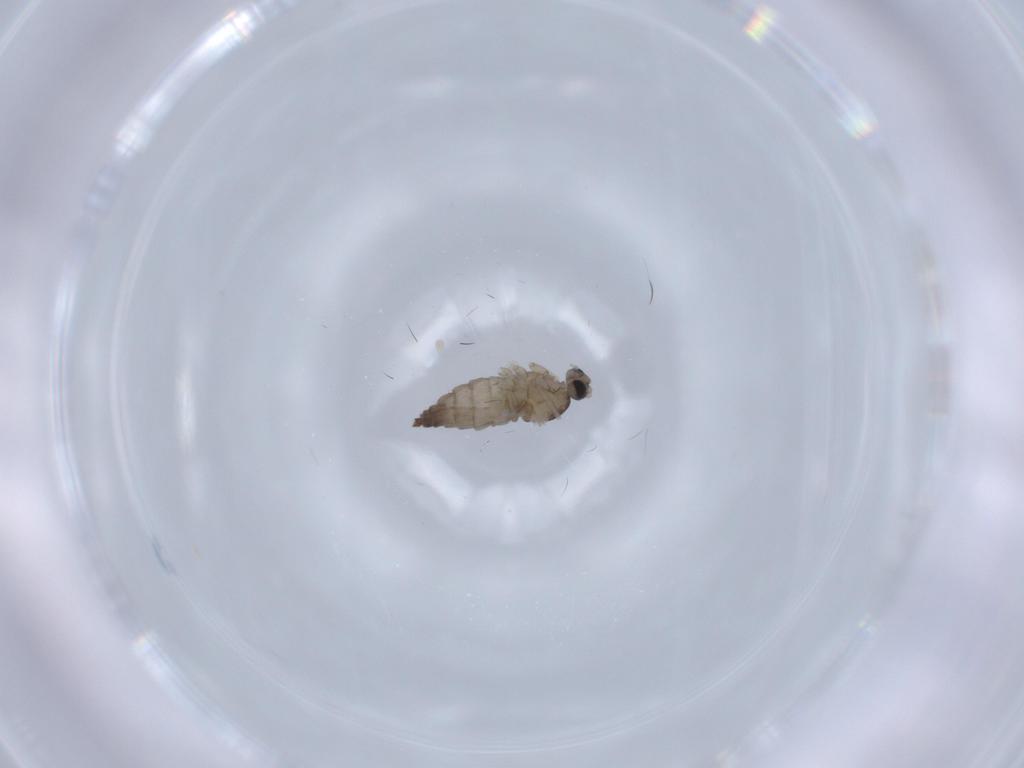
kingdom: Animalia
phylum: Arthropoda
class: Insecta
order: Diptera
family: Cecidomyiidae
